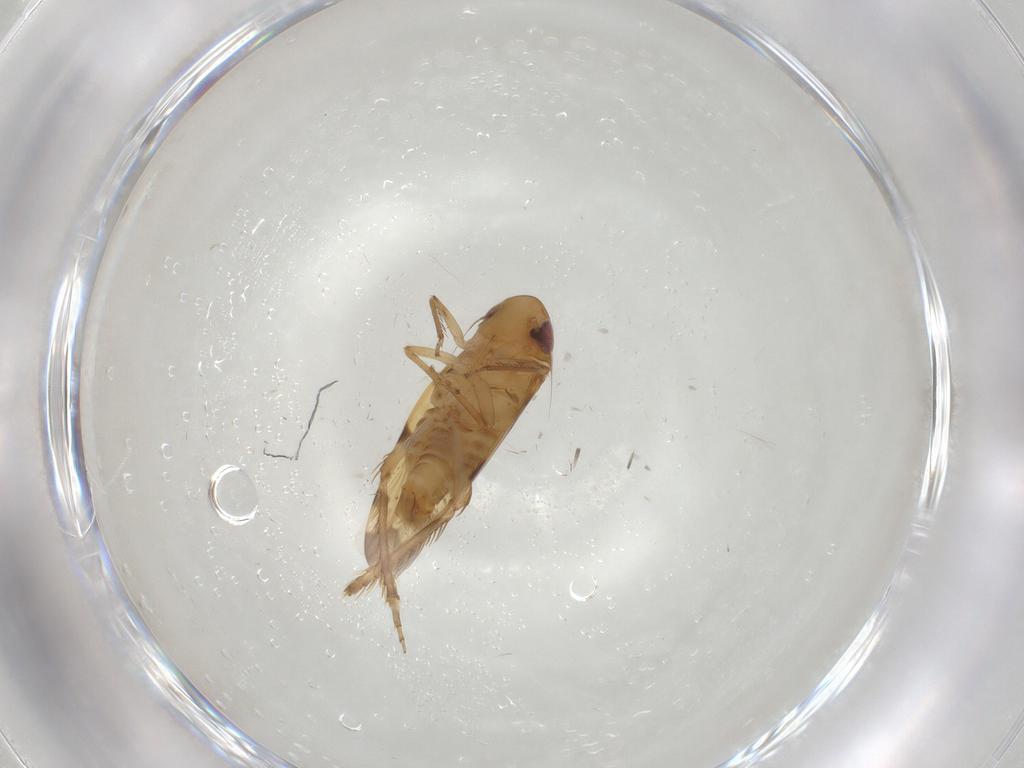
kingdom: Animalia
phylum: Arthropoda
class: Insecta
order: Hemiptera
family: Cicadellidae
